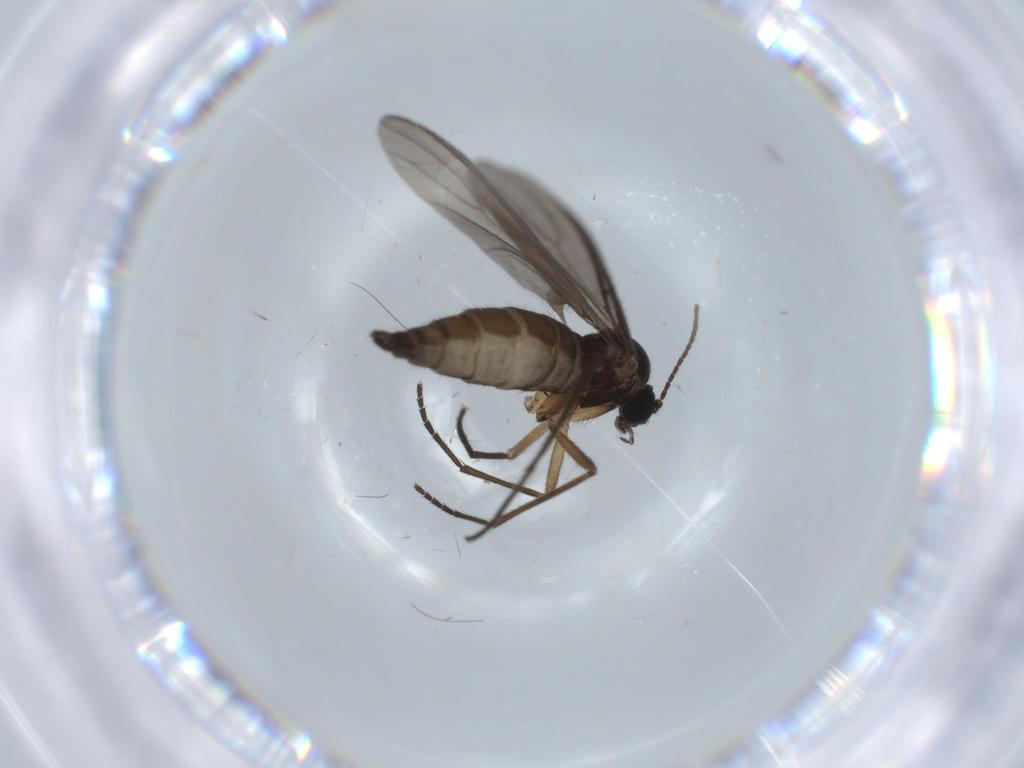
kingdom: Animalia
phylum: Arthropoda
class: Insecta
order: Diptera
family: Sciaridae
